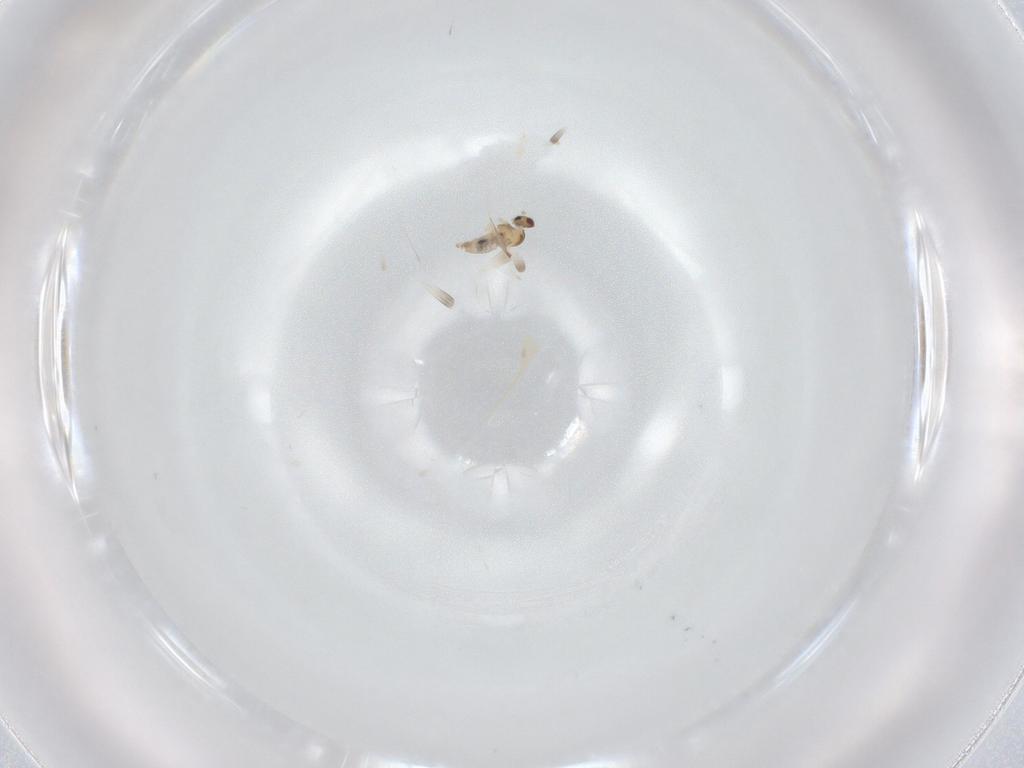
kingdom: Animalia
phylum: Arthropoda
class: Insecta
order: Diptera
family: Cecidomyiidae
